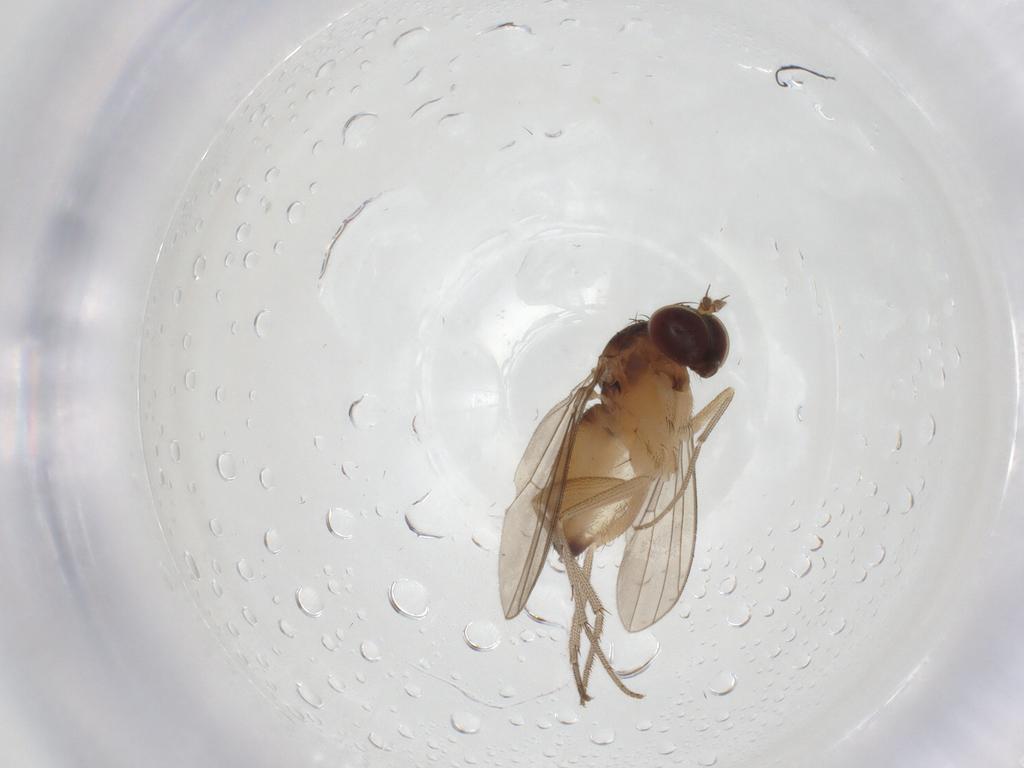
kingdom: Animalia
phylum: Arthropoda
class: Insecta
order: Diptera
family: Dolichopodidae
